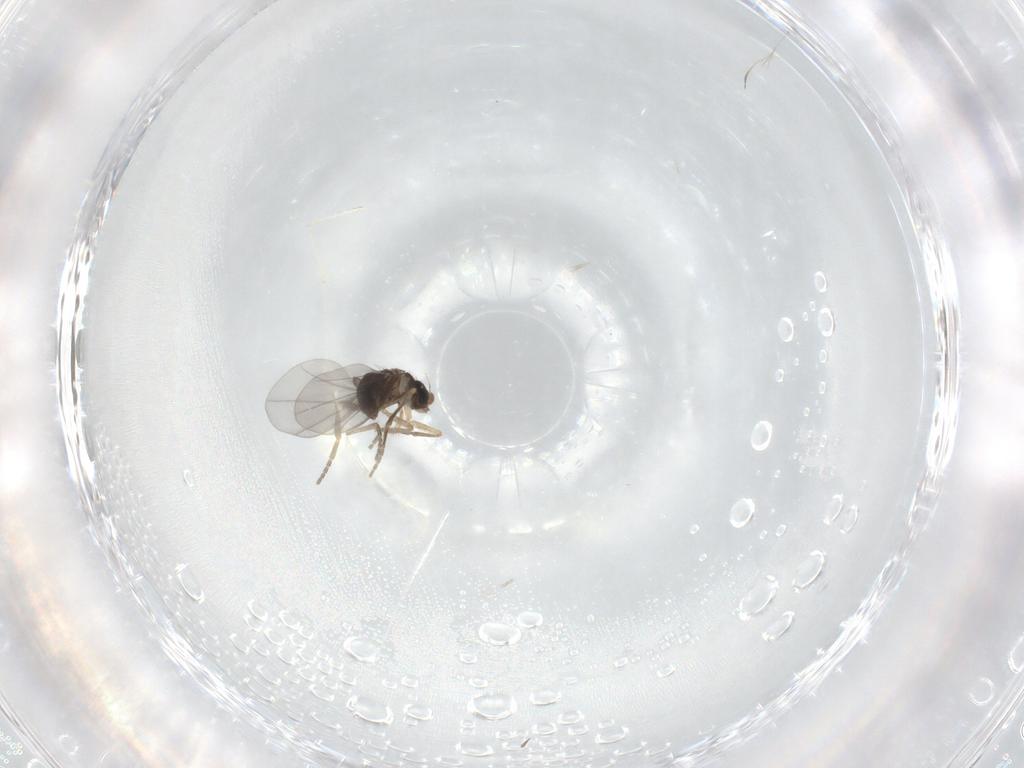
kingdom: Animalia
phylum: Arthropoda
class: Insecta
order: Diptera
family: Phoridae
